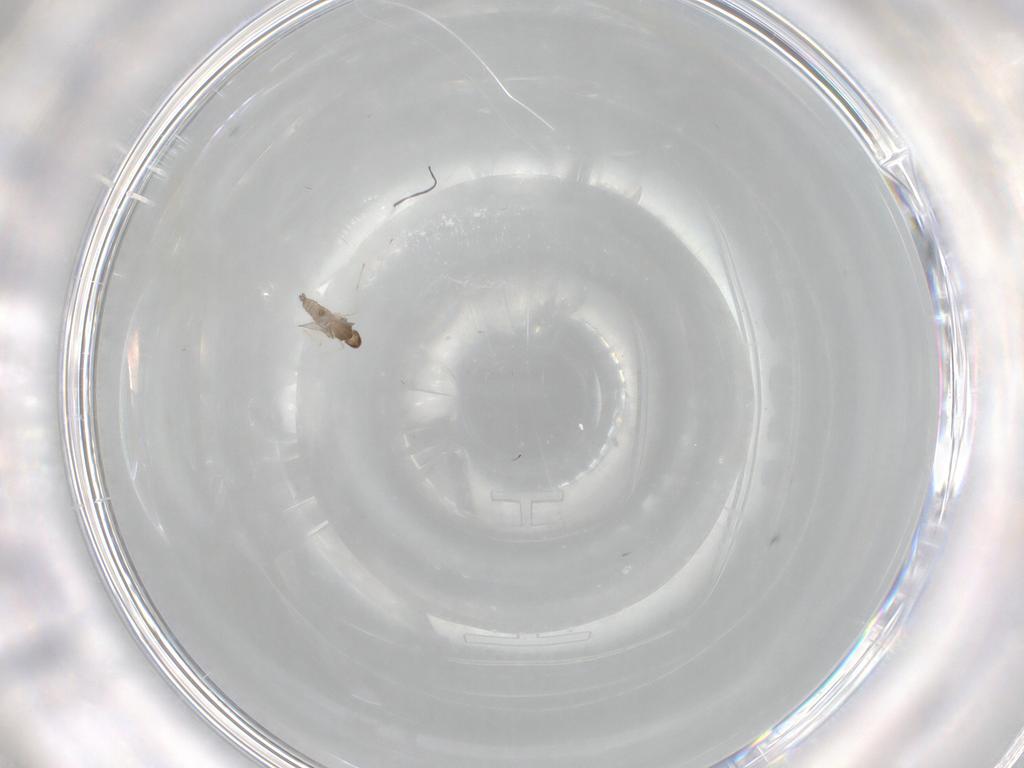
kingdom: Animalia
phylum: Arthropoda
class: Insecta
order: Diptera
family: Cecidomyiidae
